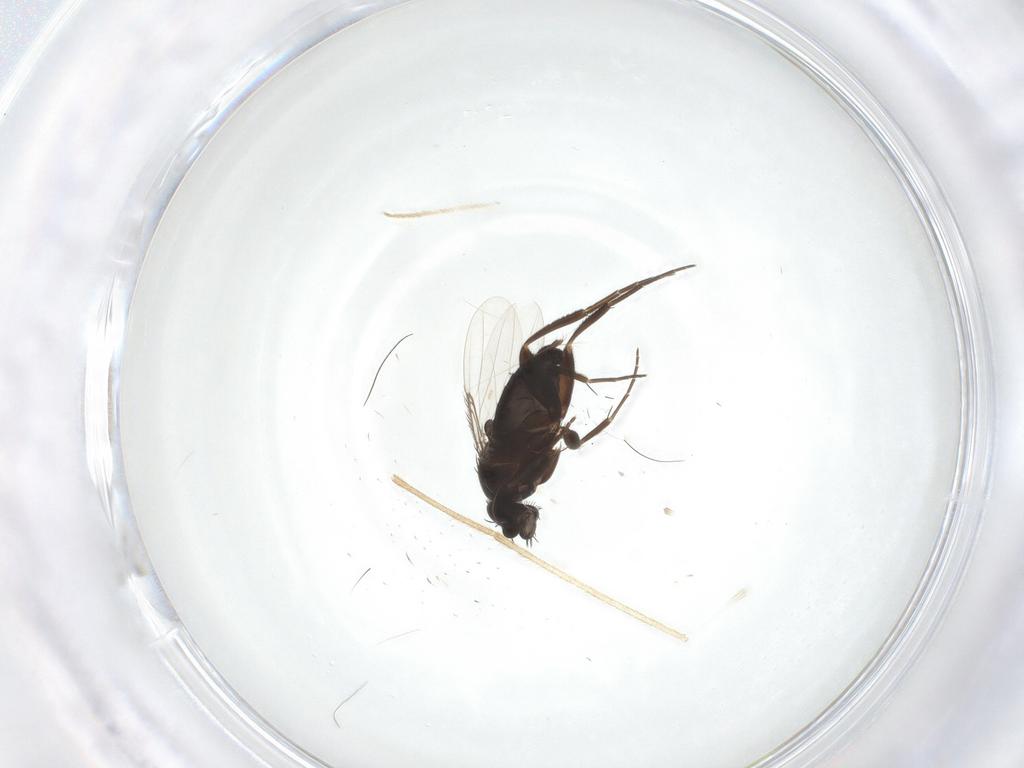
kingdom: Animalia
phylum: Arthropoda
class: Insecta
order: Diptera
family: Phoridae
